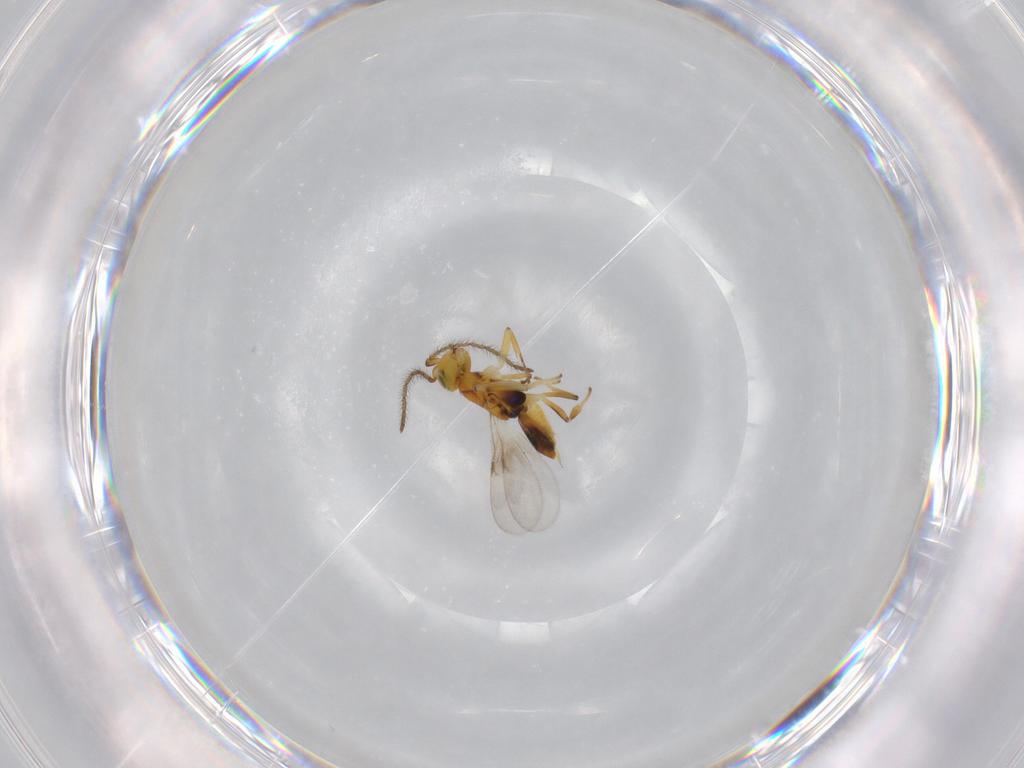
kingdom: Animalia
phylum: Arthropoda
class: Insecta
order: Hymenoptera
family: Encyrtidae
